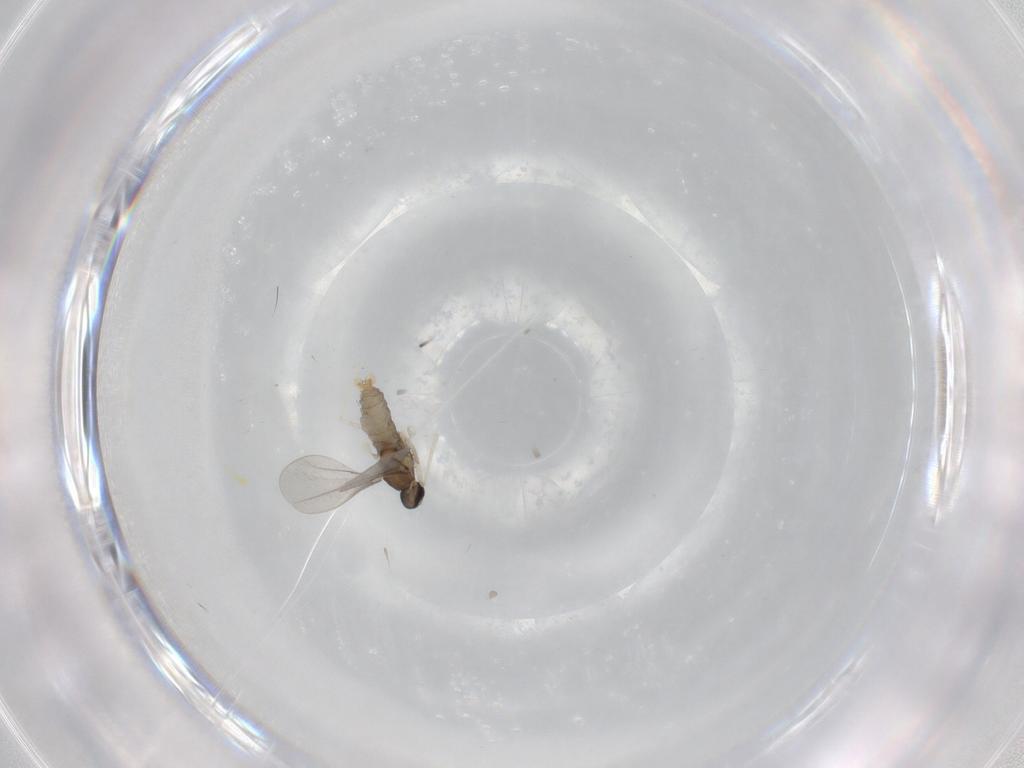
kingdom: Animalia
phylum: Arthropoda
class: Insecta
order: Diptera
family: Cecidomyiidae
